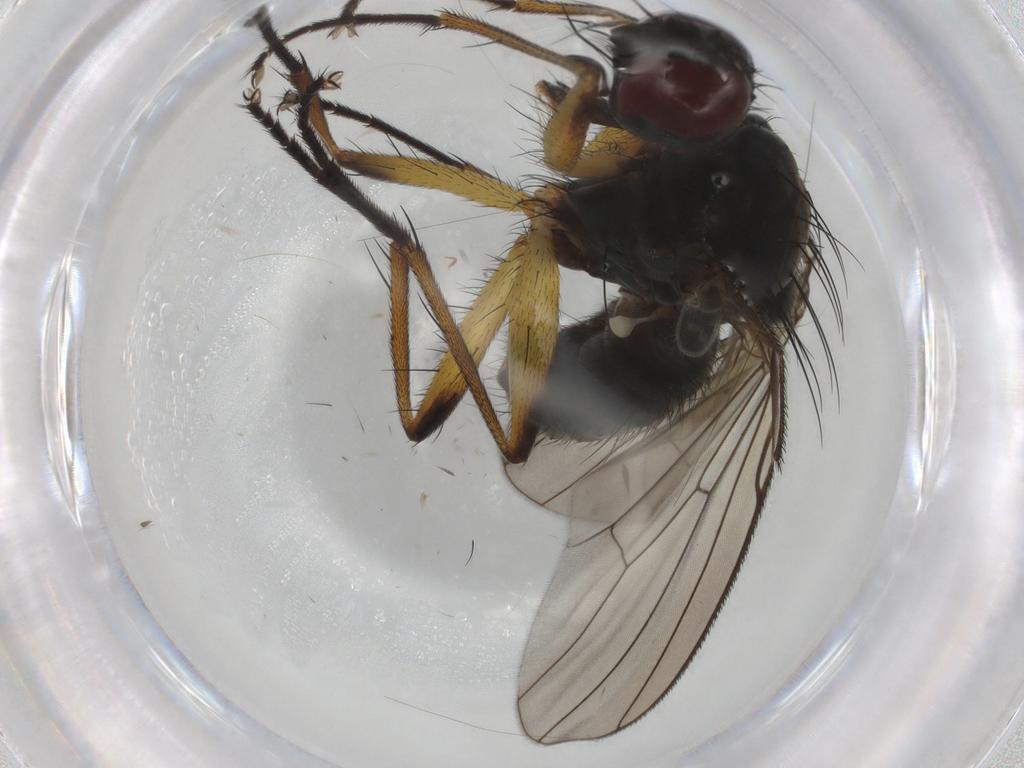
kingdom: Animalia
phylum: Arthropoda
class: Insecta
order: Diptera
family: Muscidae
